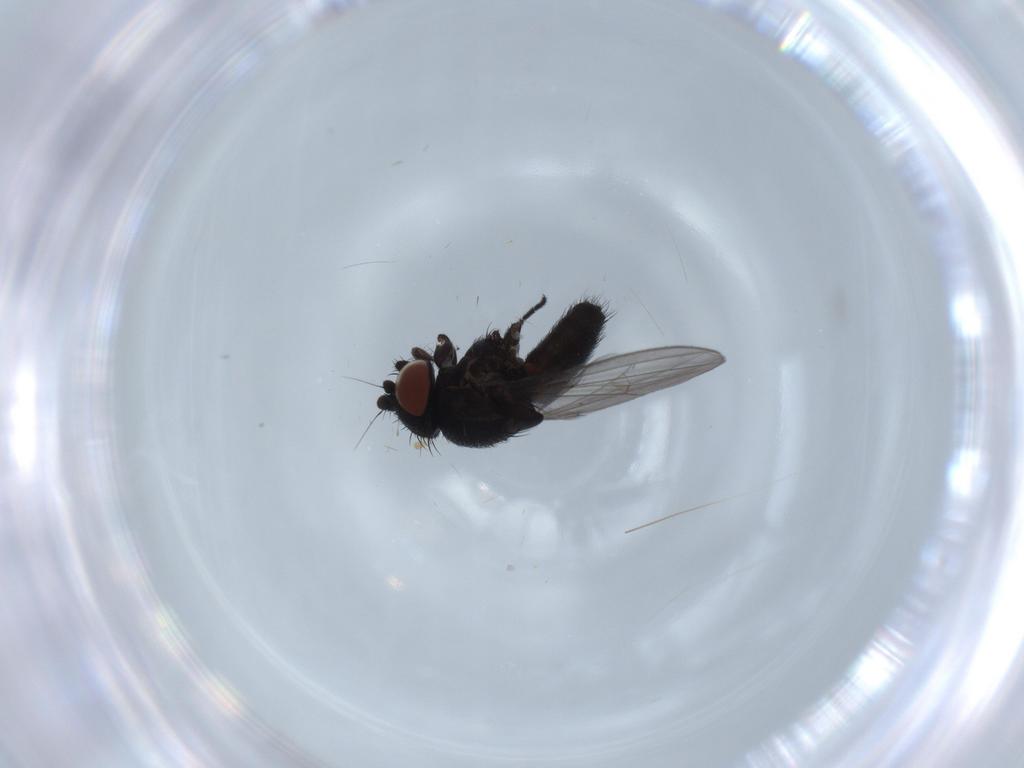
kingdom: Animalia
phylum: Arthropoda
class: Insecta
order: Diptera
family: Milichiidae
